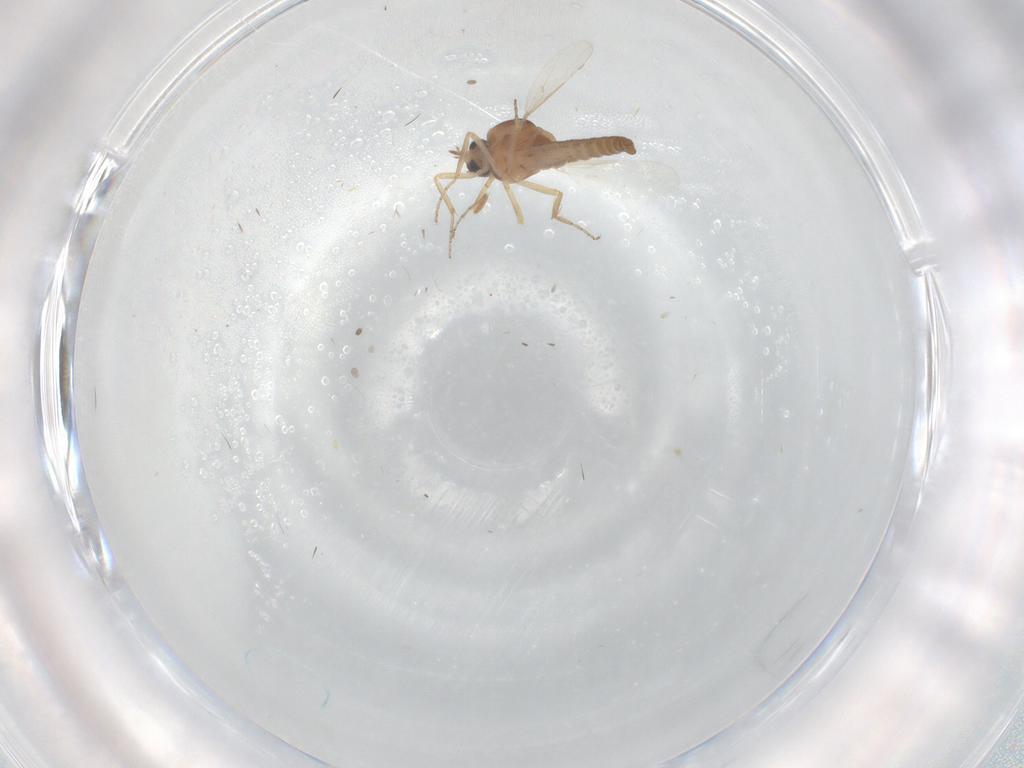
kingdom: Animalia
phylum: Arthropoda
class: Insecta
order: Diptera
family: Ceratopogonidae
